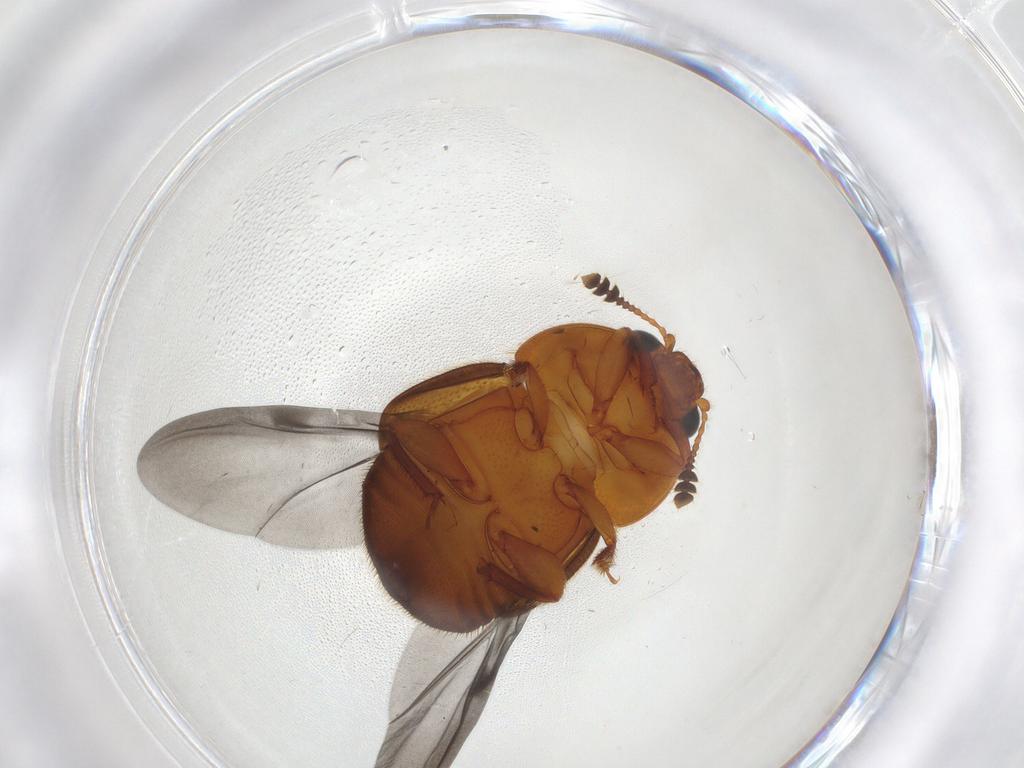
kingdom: Animalia
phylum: Arthropoda
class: Insecta
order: Coleoptera
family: Nitidulidae
